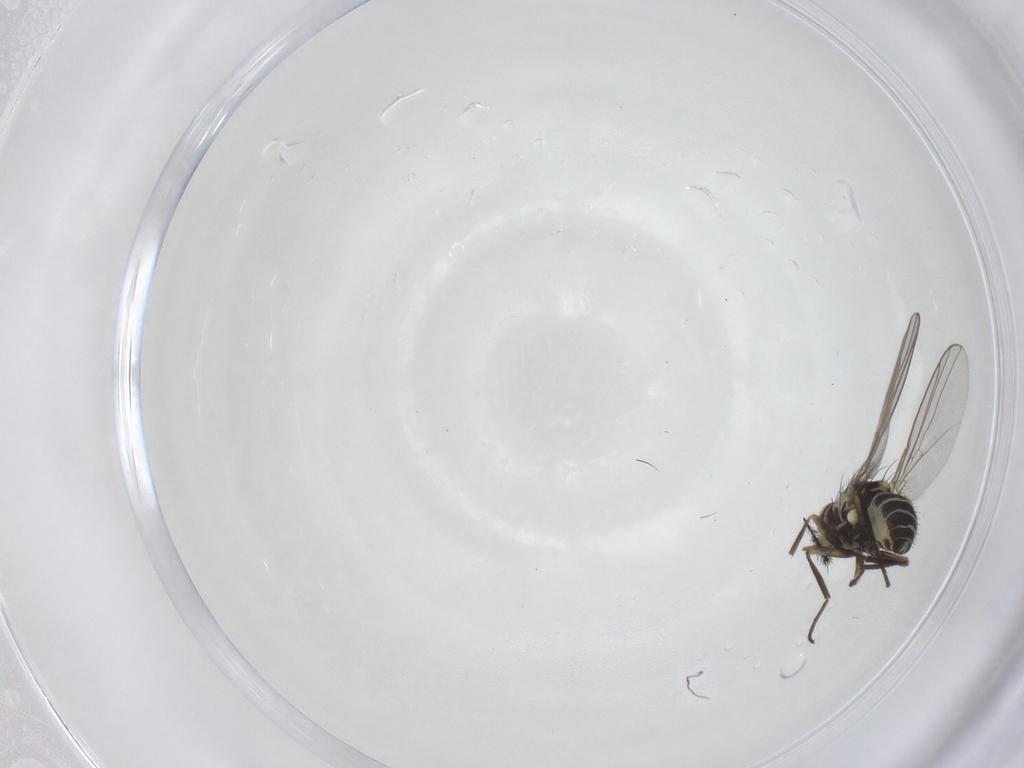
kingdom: Animalia
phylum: Arthropoda
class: Insecta
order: Diptera
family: Agromyzidae
